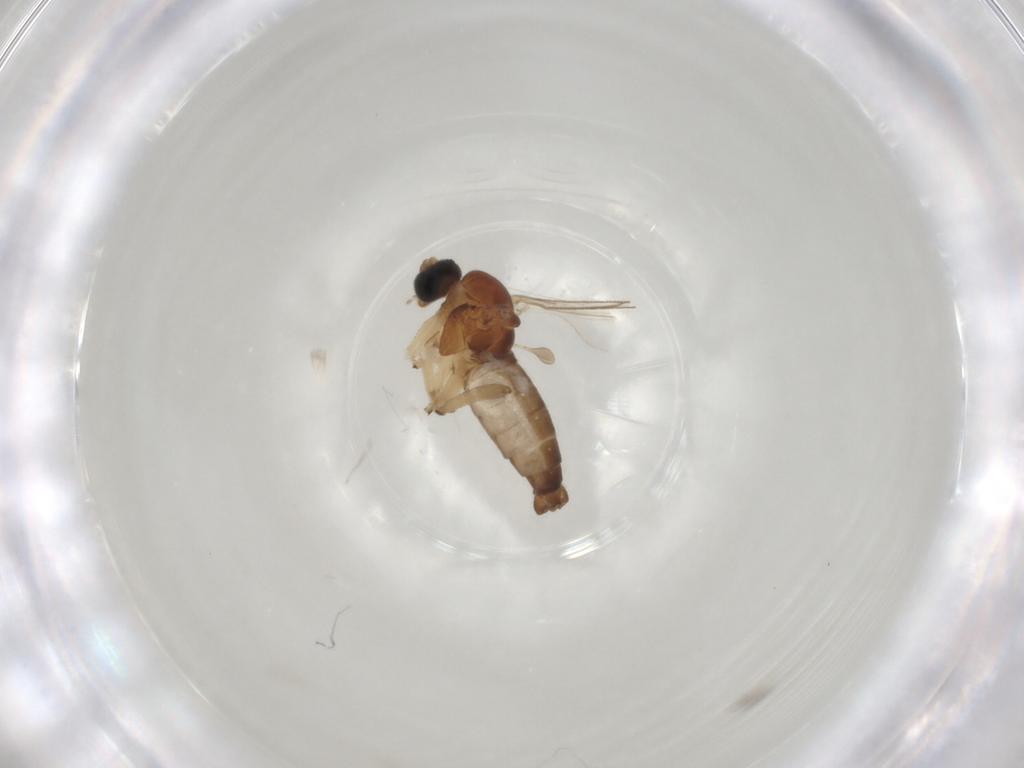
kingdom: Animalia
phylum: Arthropoda
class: Insecta
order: Diptera
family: Sciaridae
